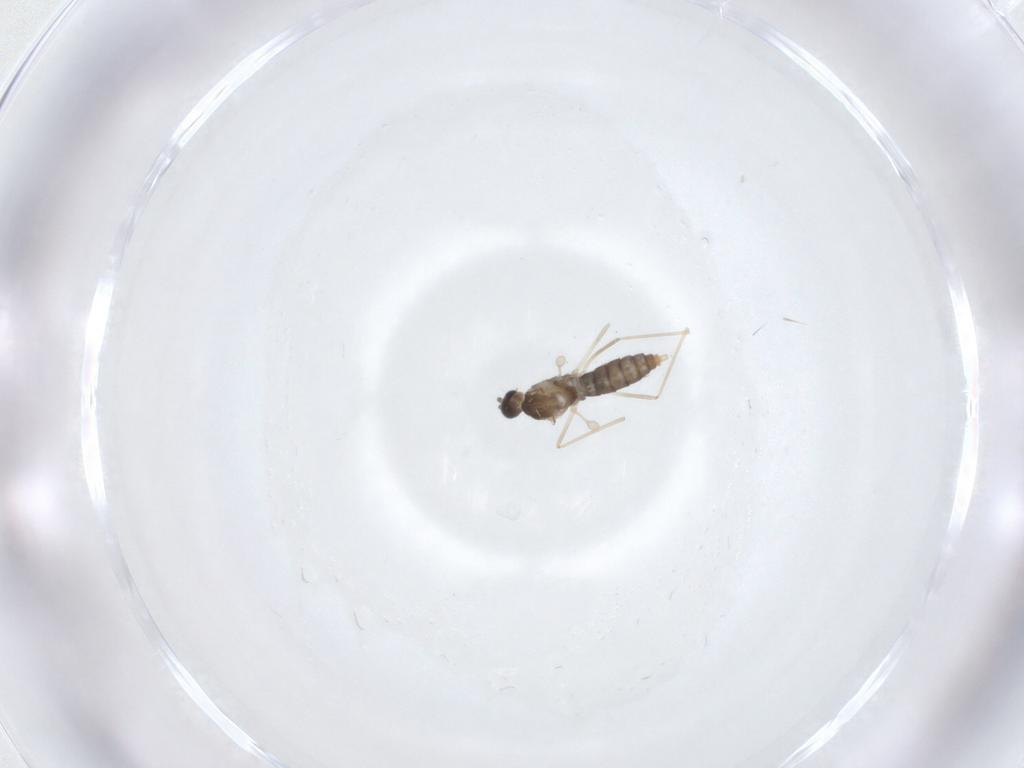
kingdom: Animalia
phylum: Arthropoda
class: Insecta
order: Diptera
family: Cecidomyiidae
